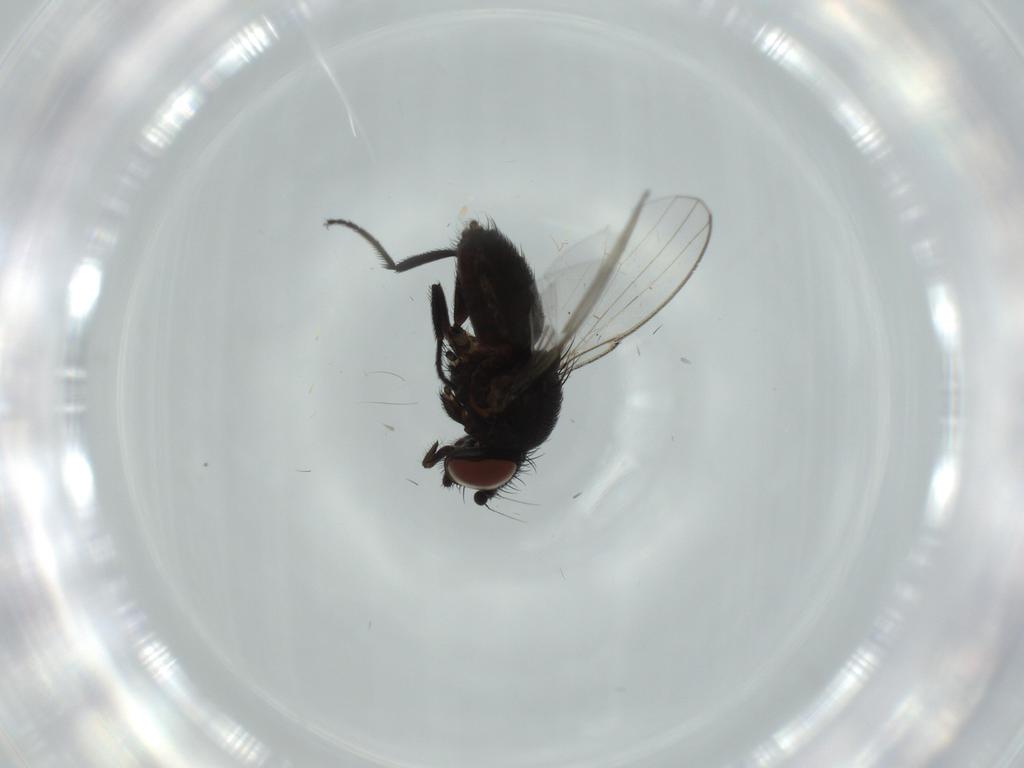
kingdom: Animalia
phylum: Arthropoda
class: Insecta
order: Diptera
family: Milichiidae
